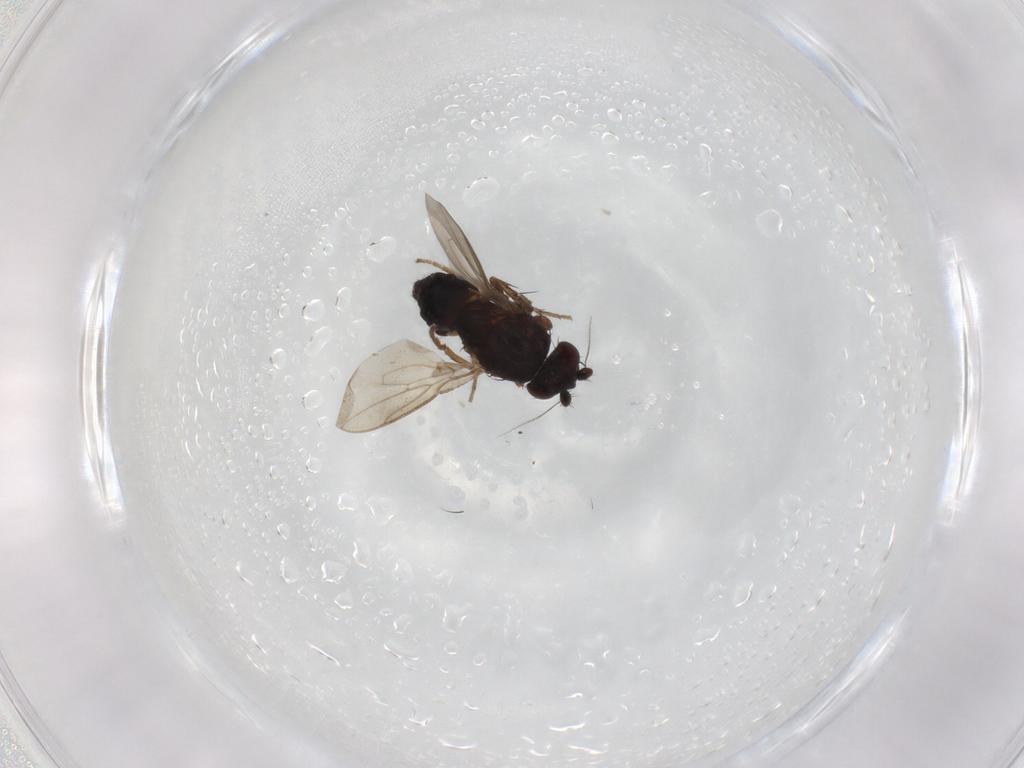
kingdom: Animalia
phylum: Arthropoda
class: Insecta
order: Diptera
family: Sphaeroceridae
